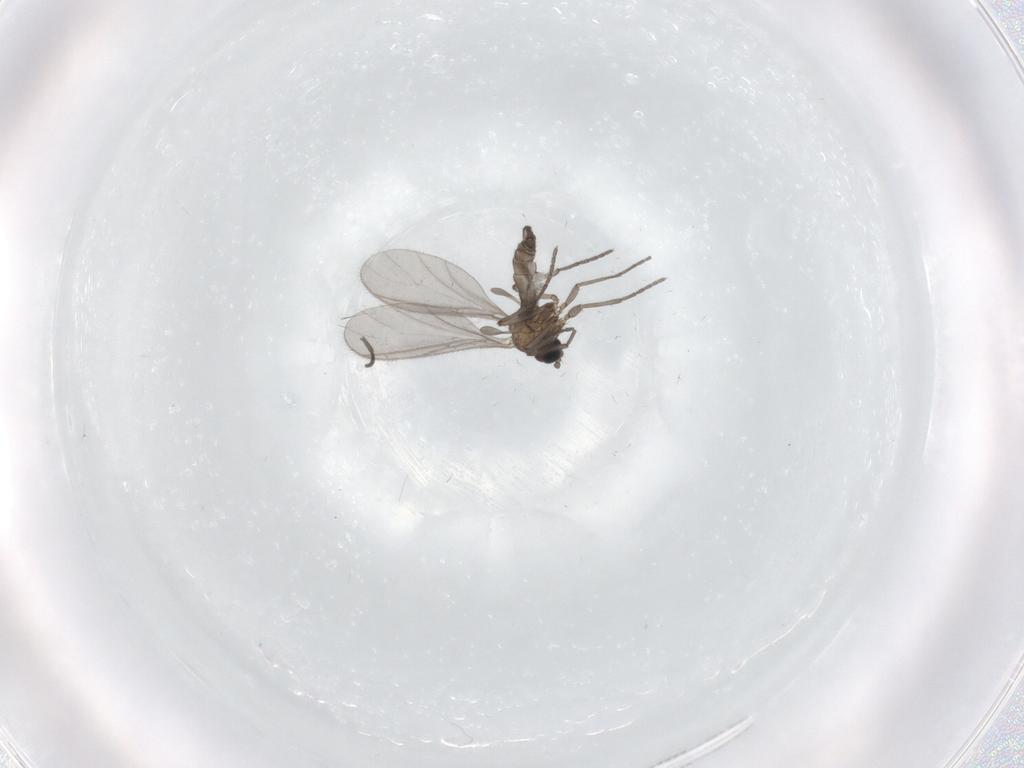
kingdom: Animalia
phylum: Arthropoda
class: Insecta
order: Diptera
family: Sciaridae
